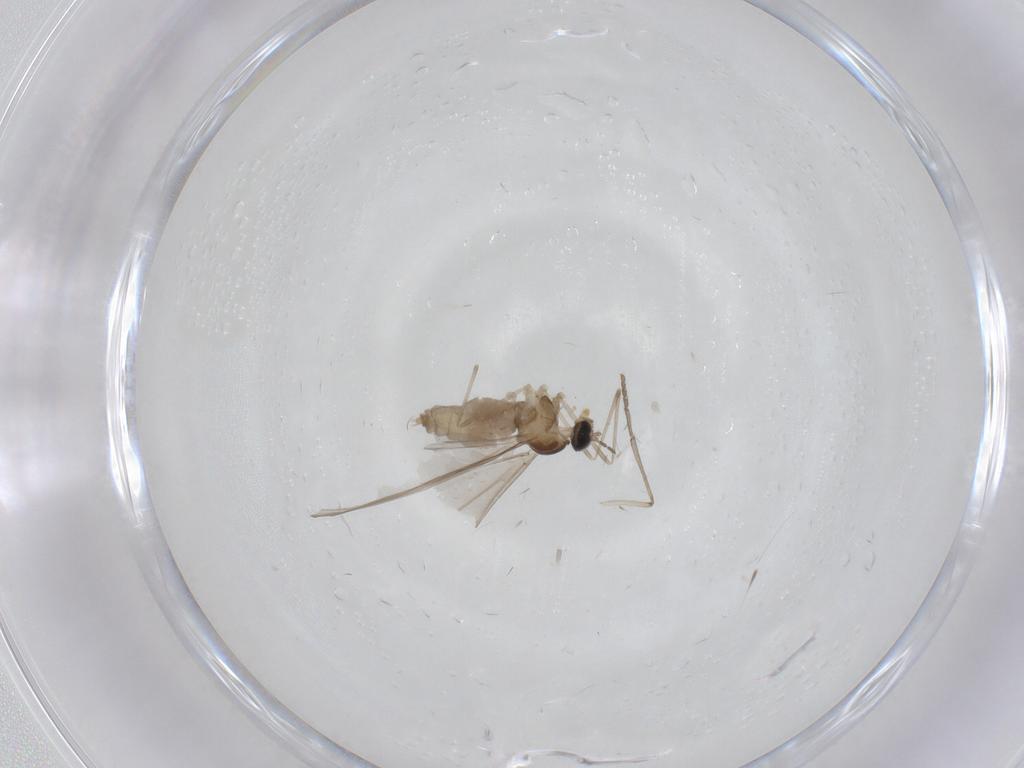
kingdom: Animalia
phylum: Arthropoda
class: Insecta
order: Diptera
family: Cecidomyiidae
